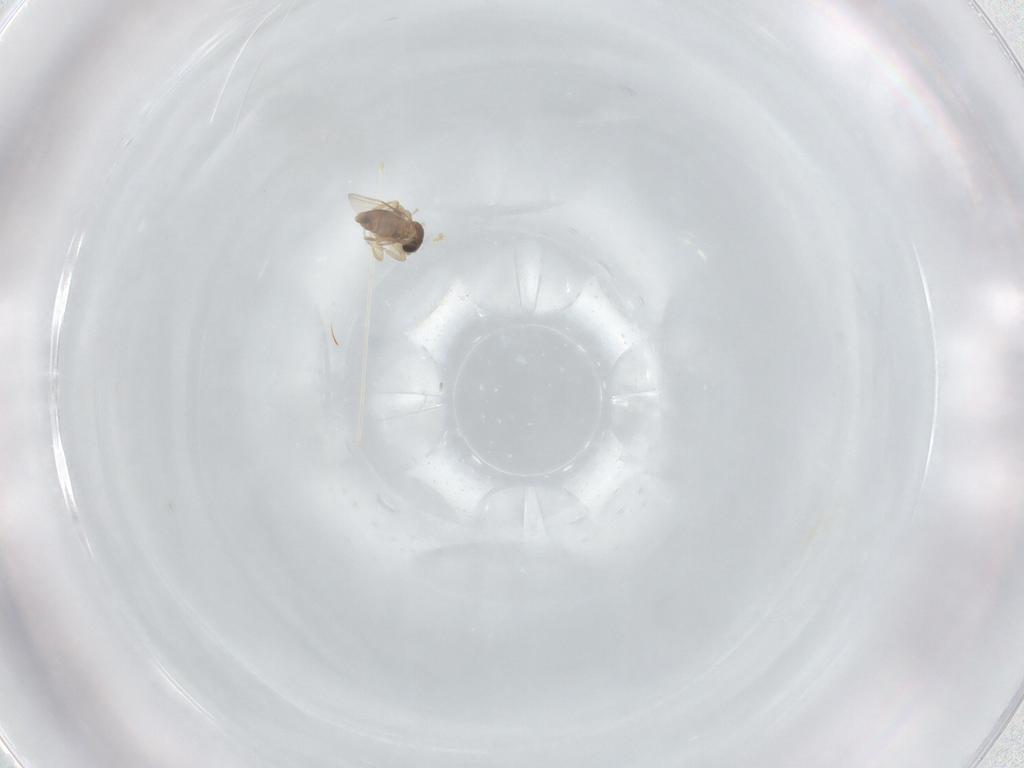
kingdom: Animalia
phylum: Arthropoda
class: Insecta
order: Diptera
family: Phoridae
